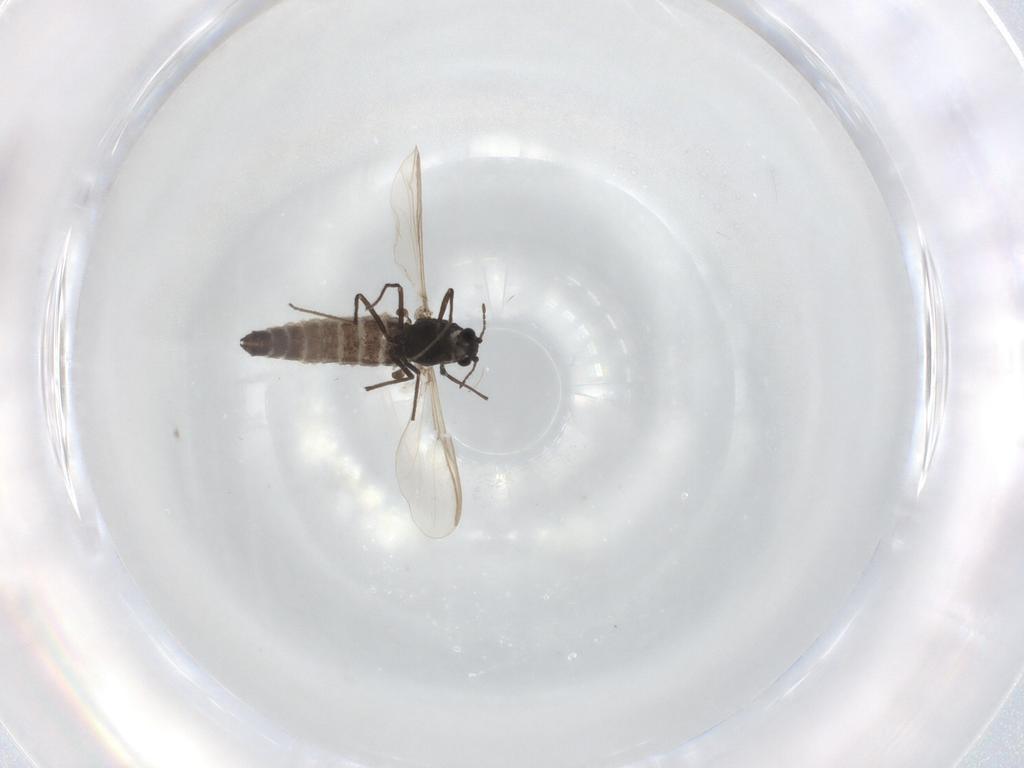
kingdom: Animalia
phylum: Arthropoda
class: Insecta
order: Diptera
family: Chironomidae
